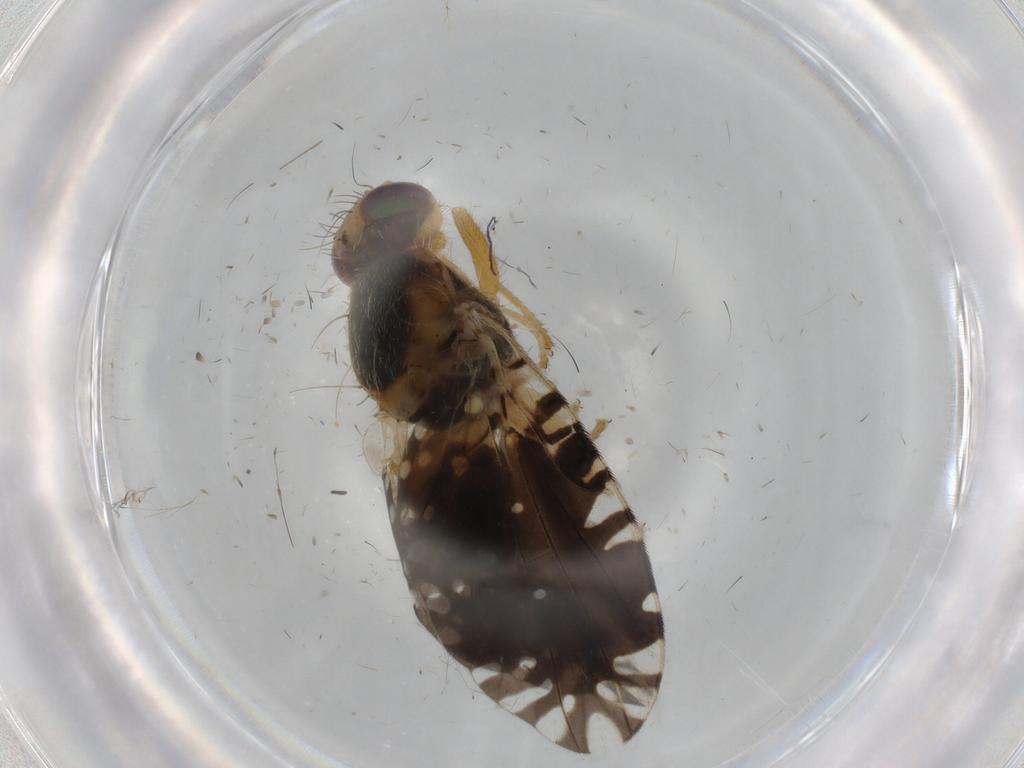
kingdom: Animalia
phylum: Arthropoda
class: Insecta
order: Diptera
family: Tephritidae
